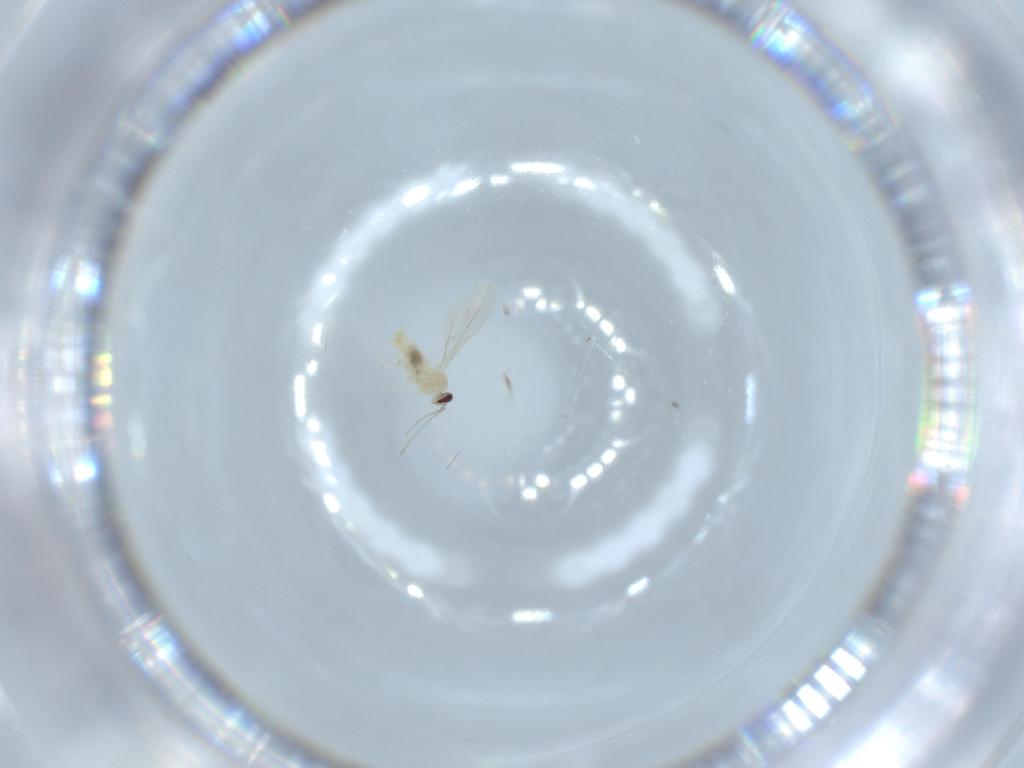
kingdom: Animalia
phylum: Arthropoda
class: Insecta
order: Diptera
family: Cecidomyiidae
